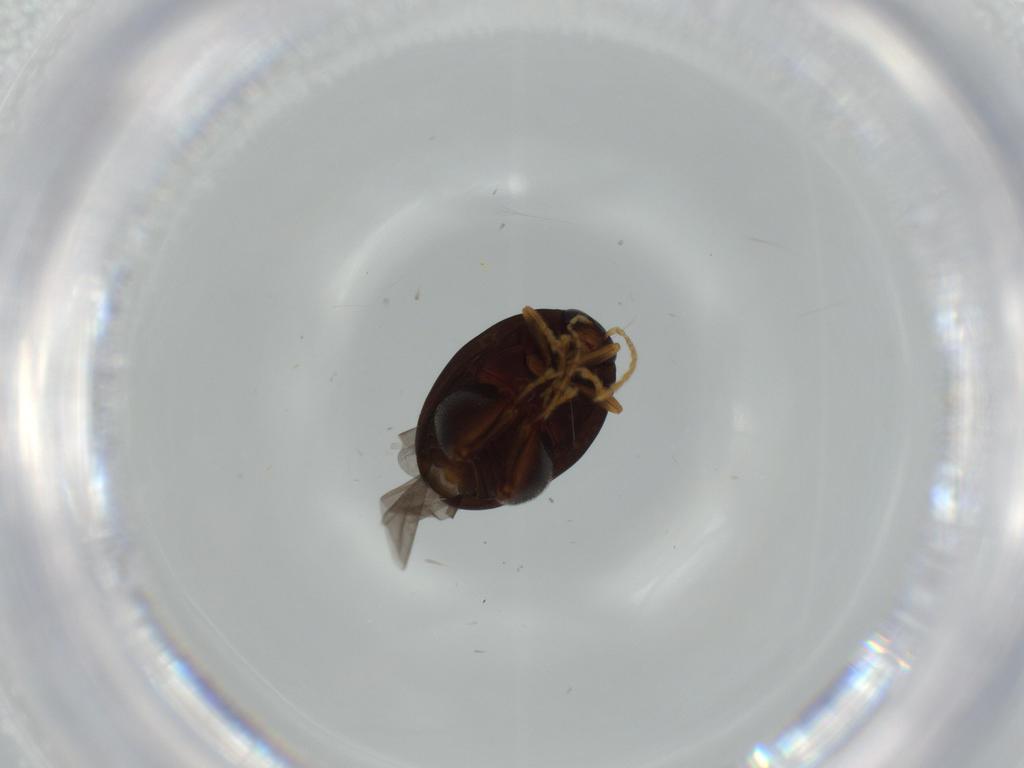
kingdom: Animalia
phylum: Arthropoda
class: Insecta
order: Coleoptera
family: Chrysomelidae
